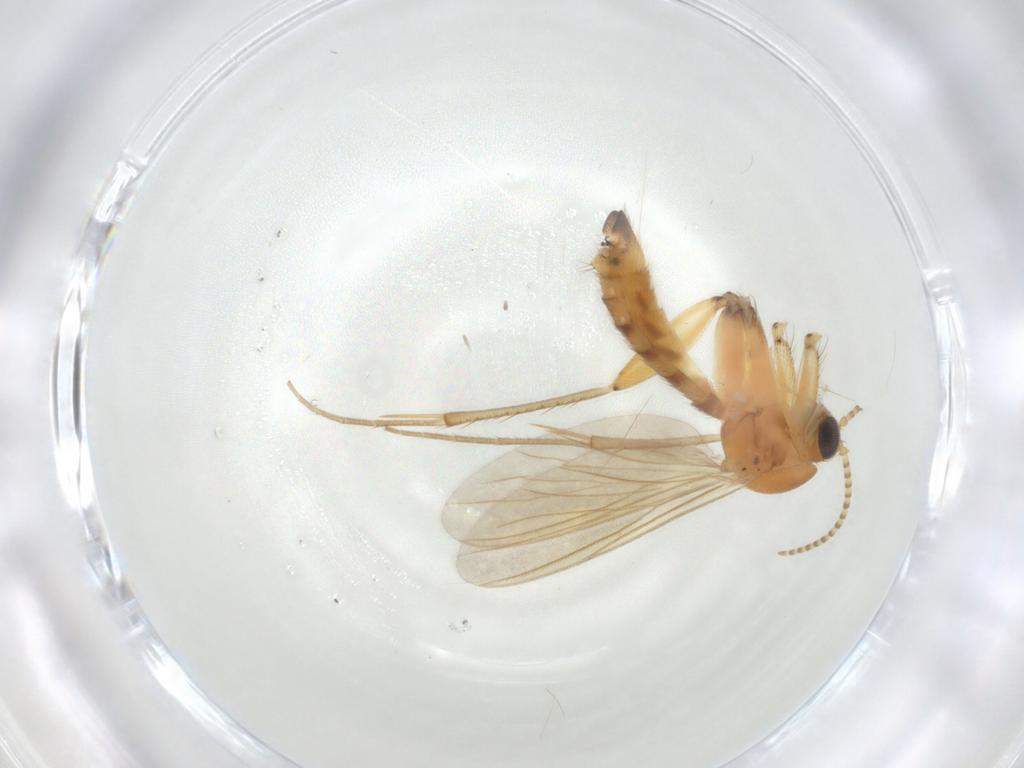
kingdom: Animalia
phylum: Arthropoda
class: Insecta
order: Diptera
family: Mycetophilidae
